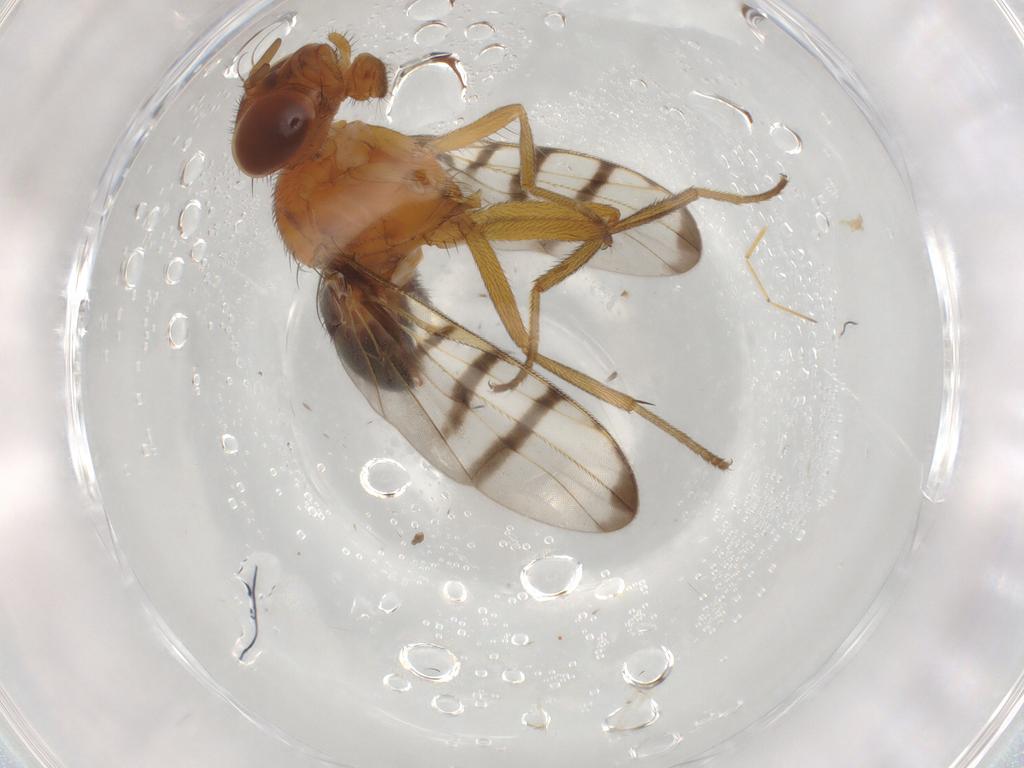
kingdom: Animalia
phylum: Arthropoda
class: Insecta
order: Diptera
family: Platystomatidae
